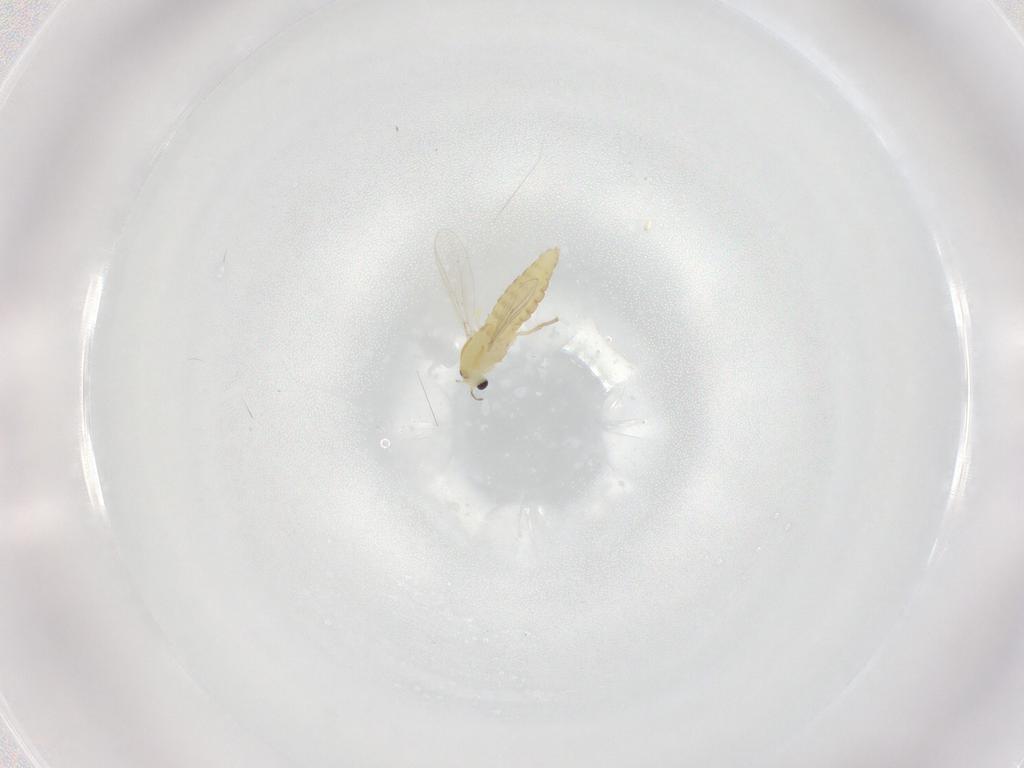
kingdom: Animalia
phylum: Arthropoda
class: Insecta
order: Diptera
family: Chironomidae
